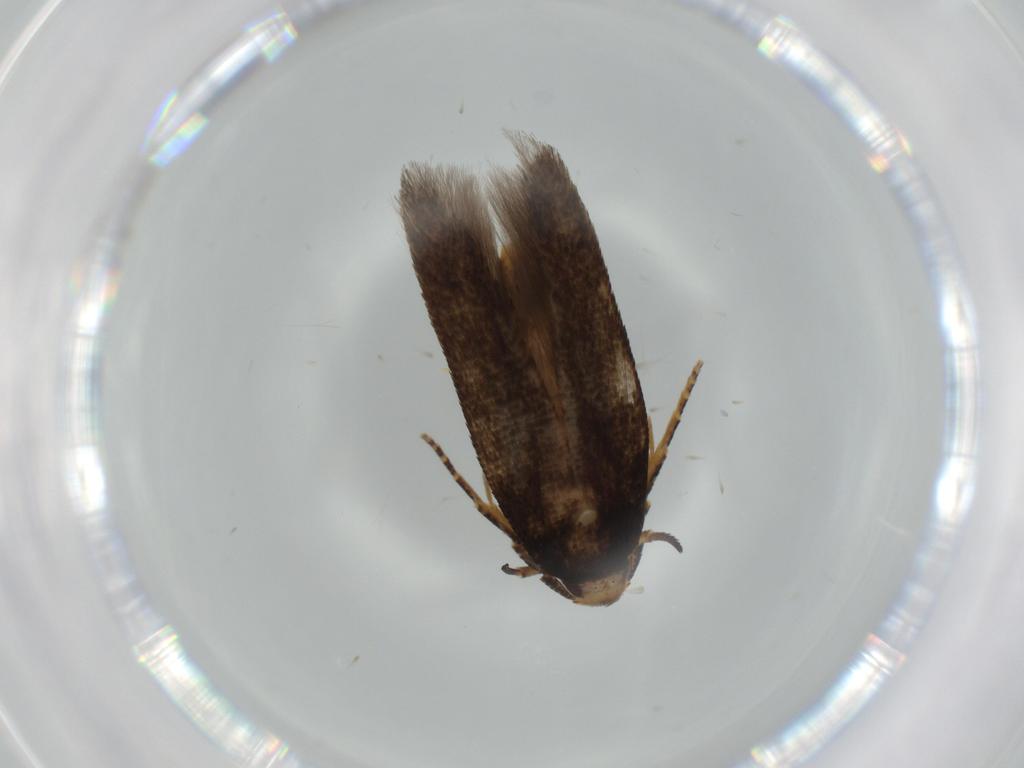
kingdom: Animalia
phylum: Arthropoda
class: Insecta
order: Lepidoptera
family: Cosmopterigidae
